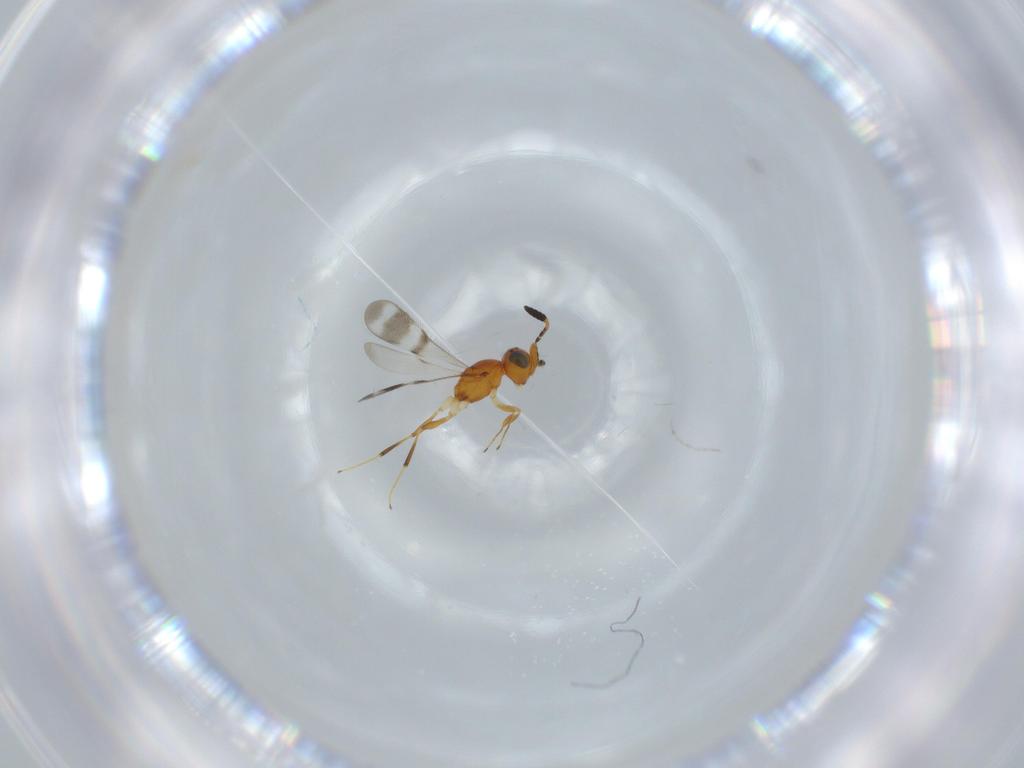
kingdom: Animalia
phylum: Arthropoda
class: Insecta
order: Hymenoptera
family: Scelionidae
